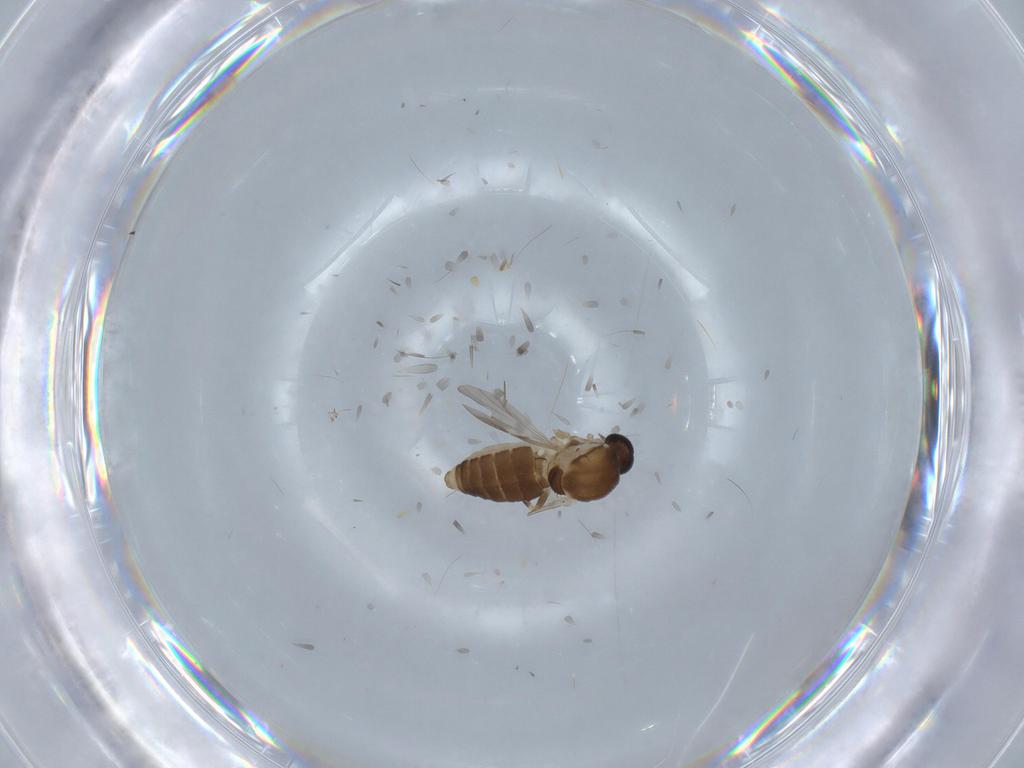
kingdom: Animalia
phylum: Arthropoda
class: Insecta
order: Diptera
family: Ceratopogonidae
